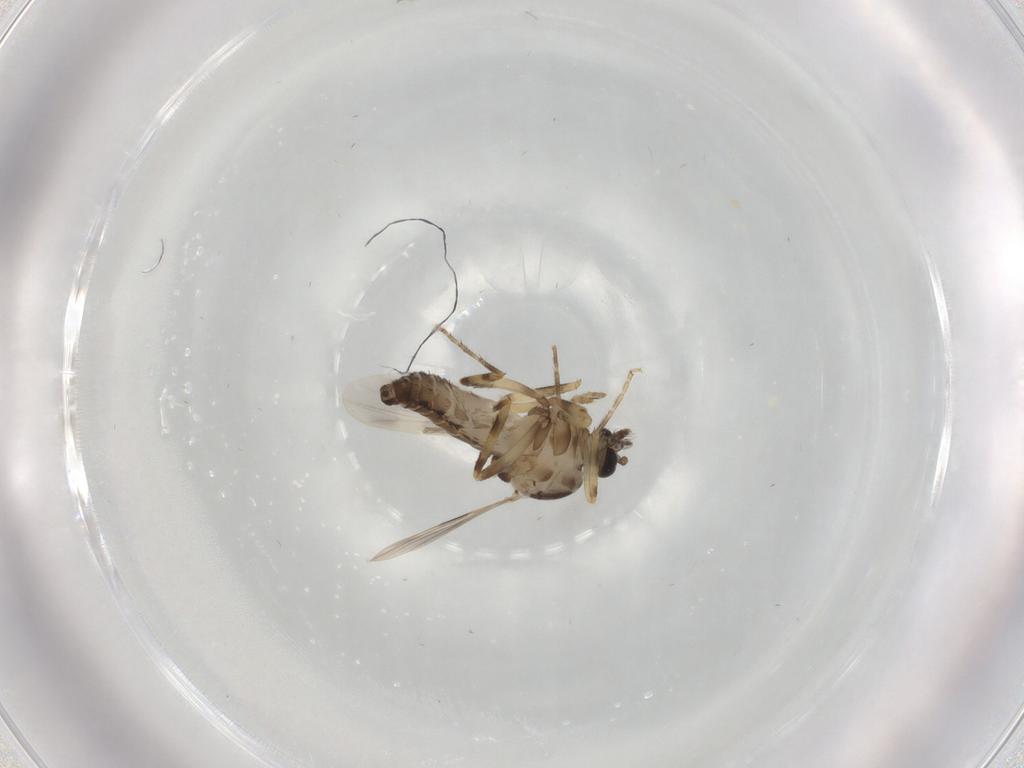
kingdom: Animalia
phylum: Arthropoda
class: Insecta
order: Diptera
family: Ceratopogonidae
